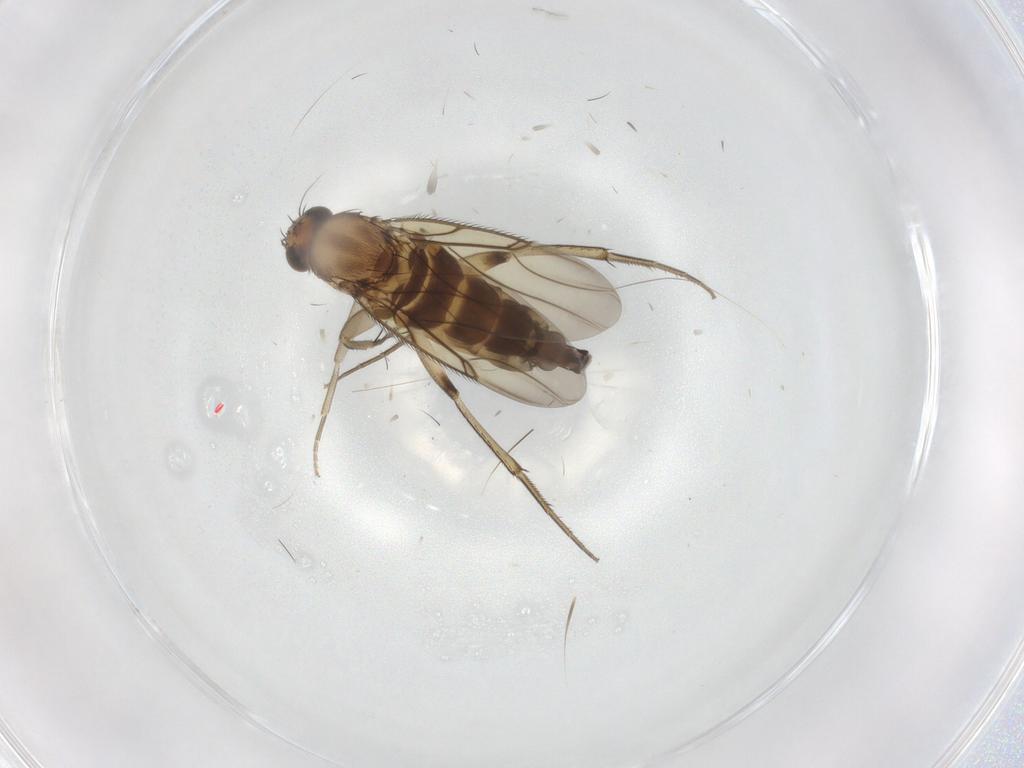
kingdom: Animalia
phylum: Arthropoda
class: Insecta
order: Diptera
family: Phoridae
